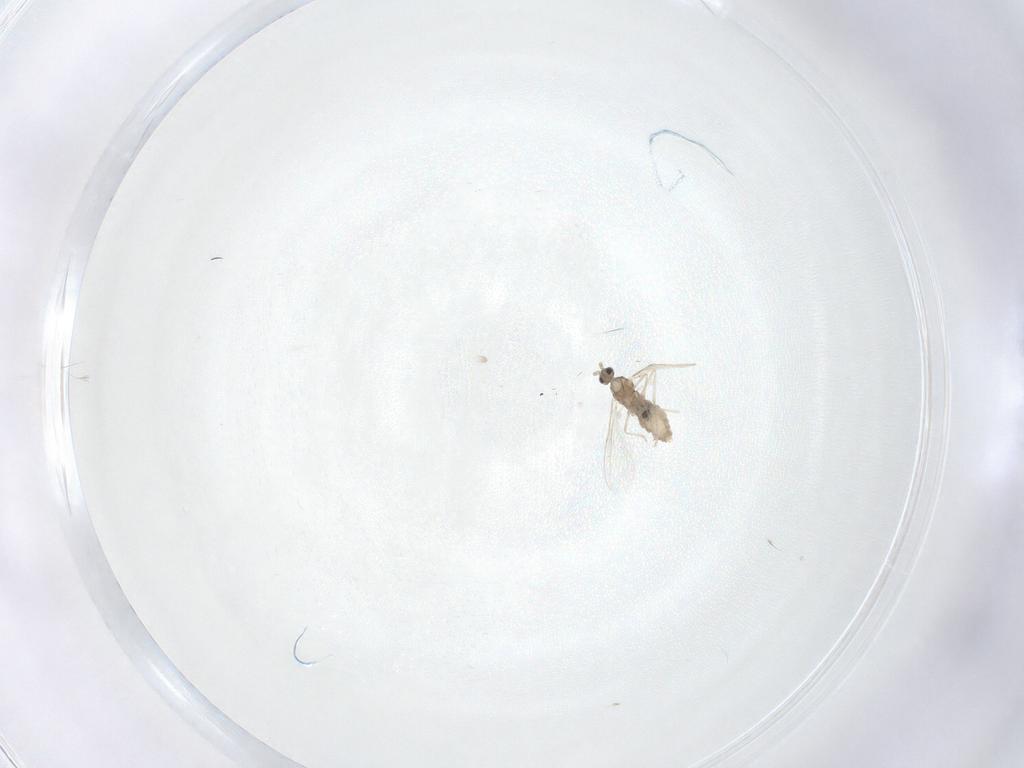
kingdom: Animalia
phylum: Arthropoda
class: Insecta
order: Diptera
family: Cecidomyiidae
